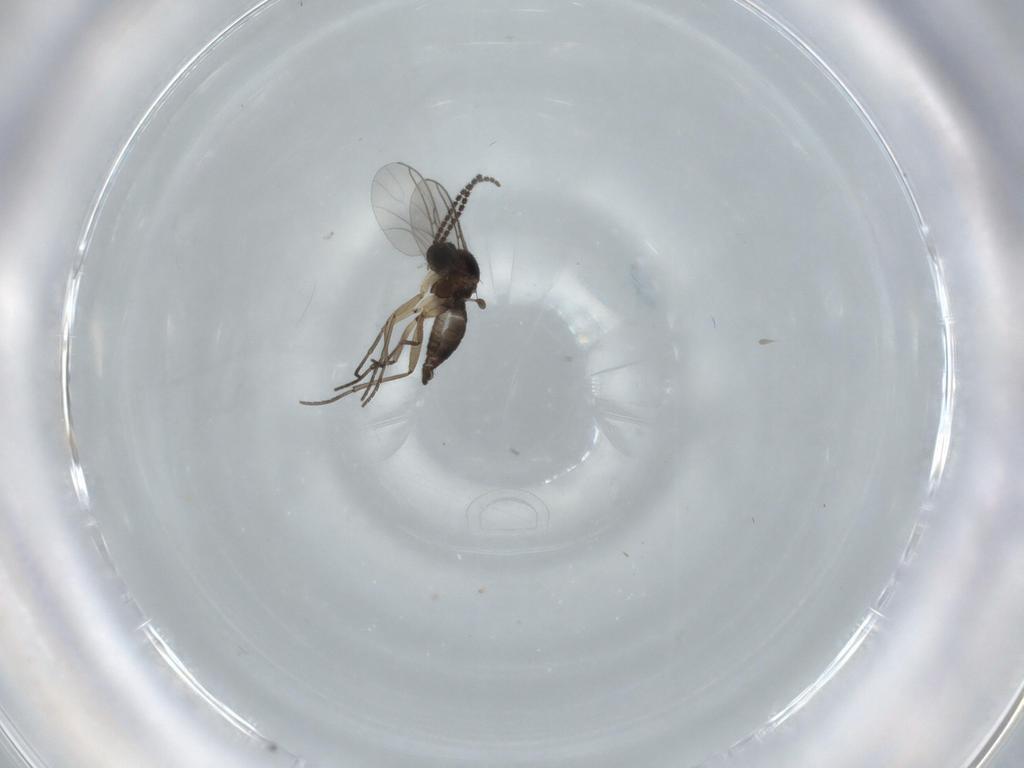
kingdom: Animalia
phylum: Arthropoda
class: Insecta
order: Diptera
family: Sciaridae
